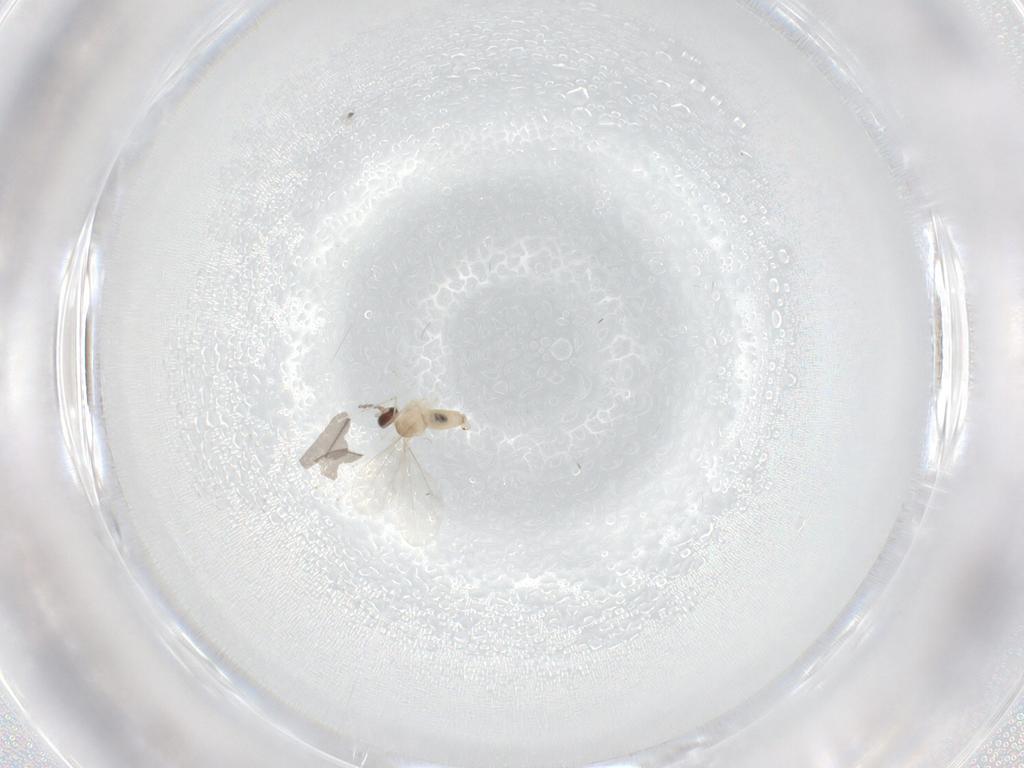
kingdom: Animalia
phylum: Arthropoda
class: Insecta
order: Diptera
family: Cecidomyiidae
